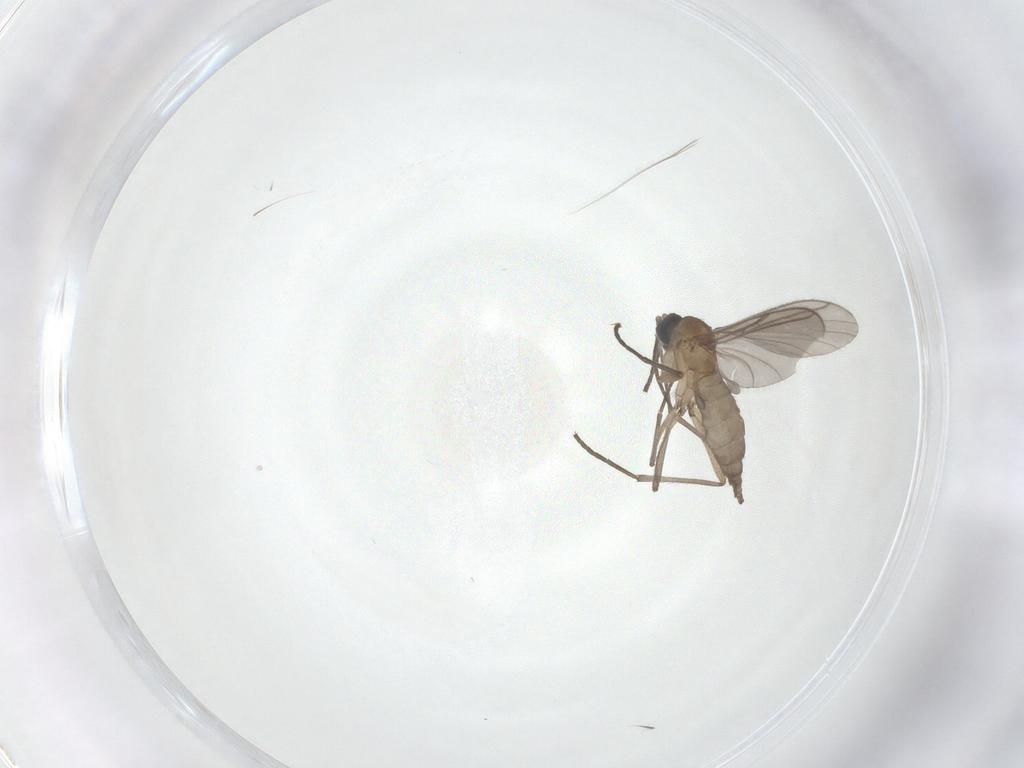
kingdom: Animalia
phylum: Arthropoda
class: Insecta
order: Diptera
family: Sciaridae
